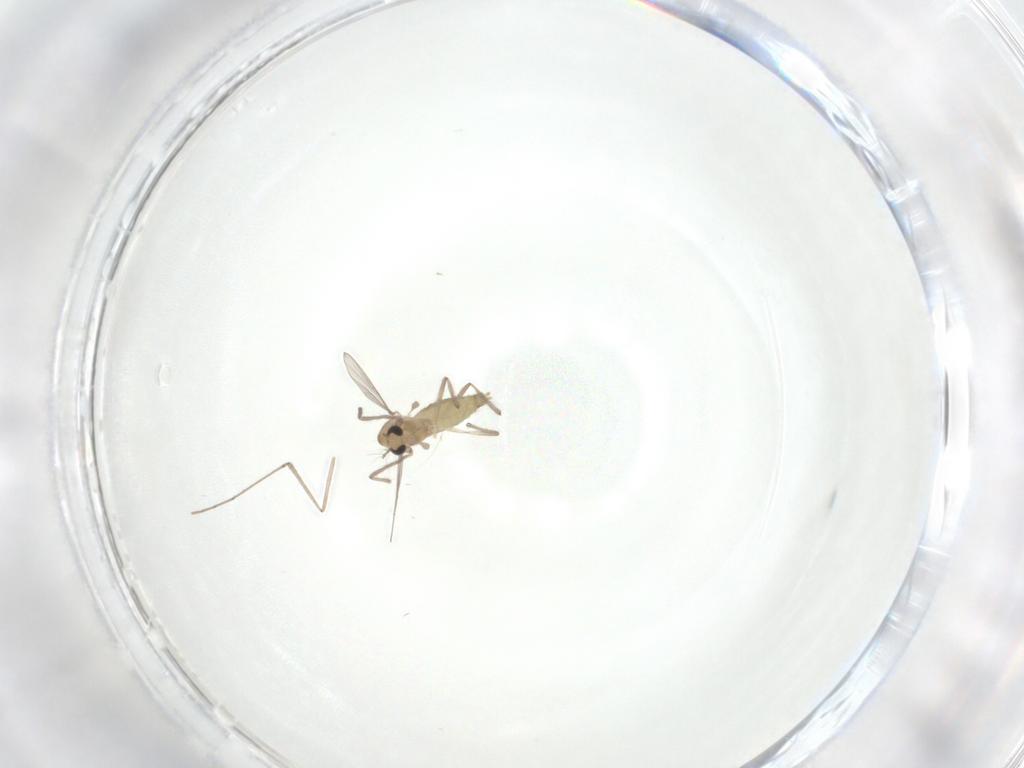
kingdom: Animalia
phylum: Arthropoda
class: Insecta
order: Diptera
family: Chironomidae
